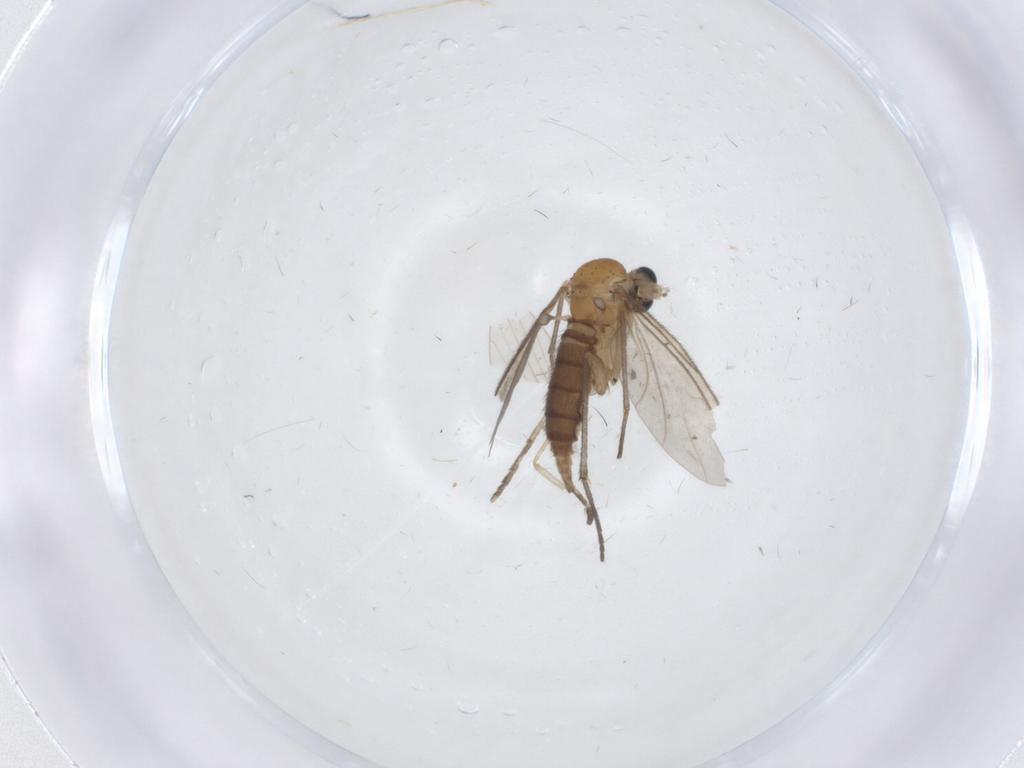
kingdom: Animalia
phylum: Arthropoda
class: Insecta
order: Diptera
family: Sciaridae
